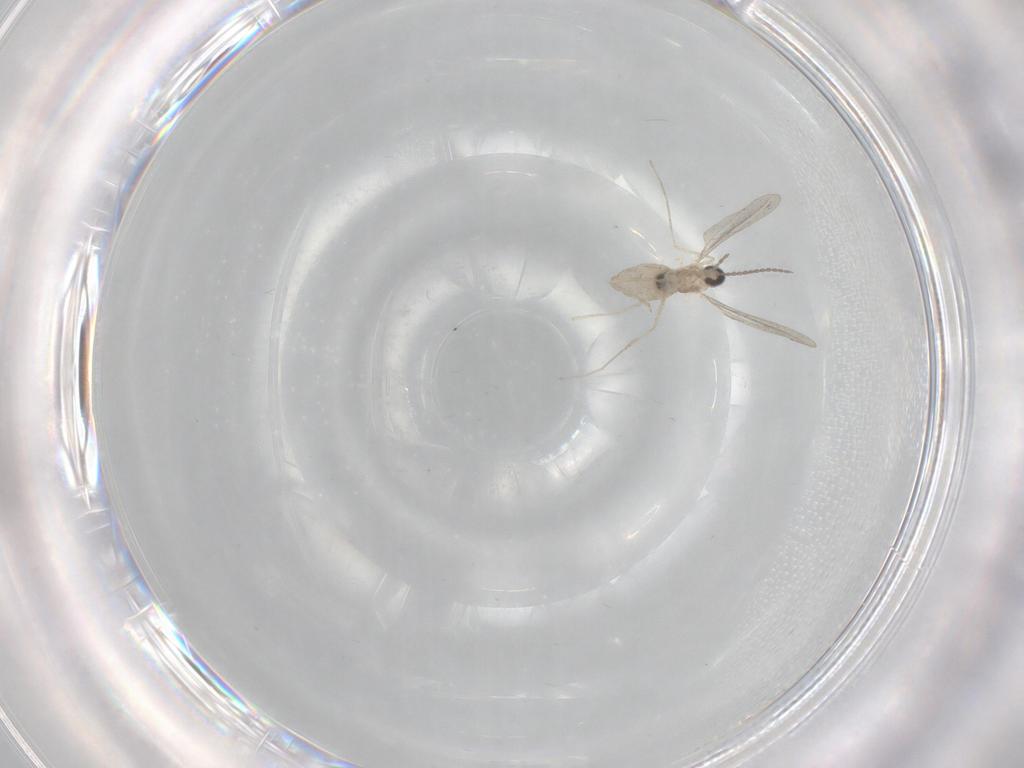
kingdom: Animalia
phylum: Arthropoda
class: Insecta
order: Diptera
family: Cecidomyiidae
